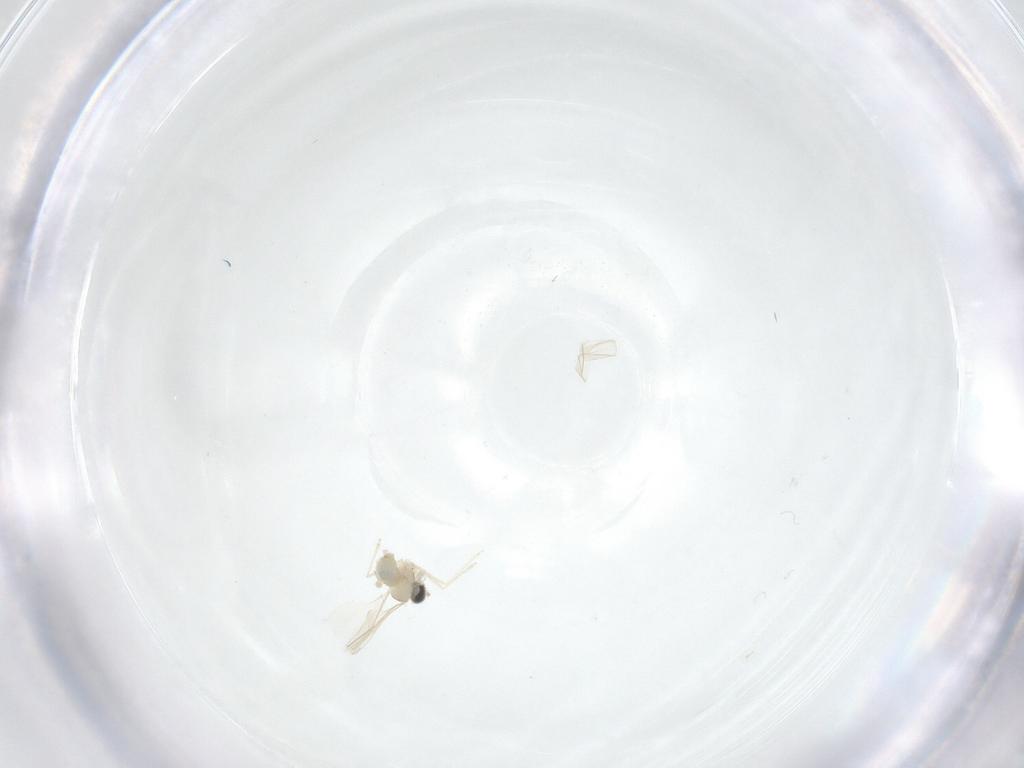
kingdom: Animalia
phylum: Arthropoda
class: Insecta
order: Diptera
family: Cecidomyiidae
